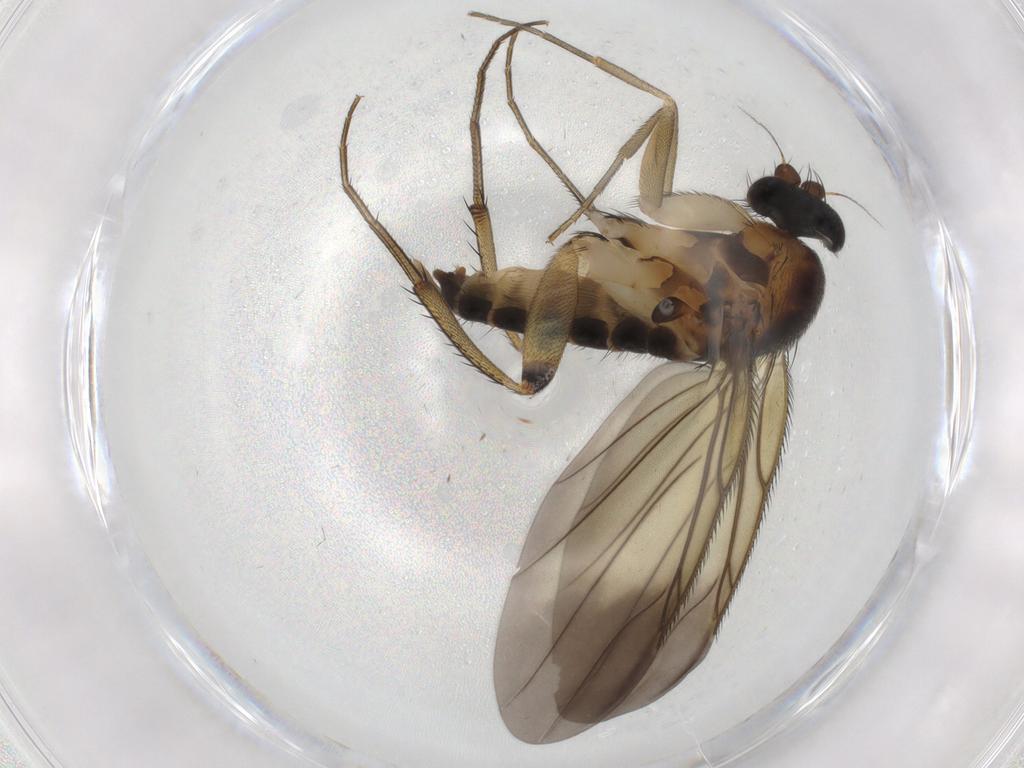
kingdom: Animalia
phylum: Arthropoda
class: Insecta
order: Diptera
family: Phoridae
